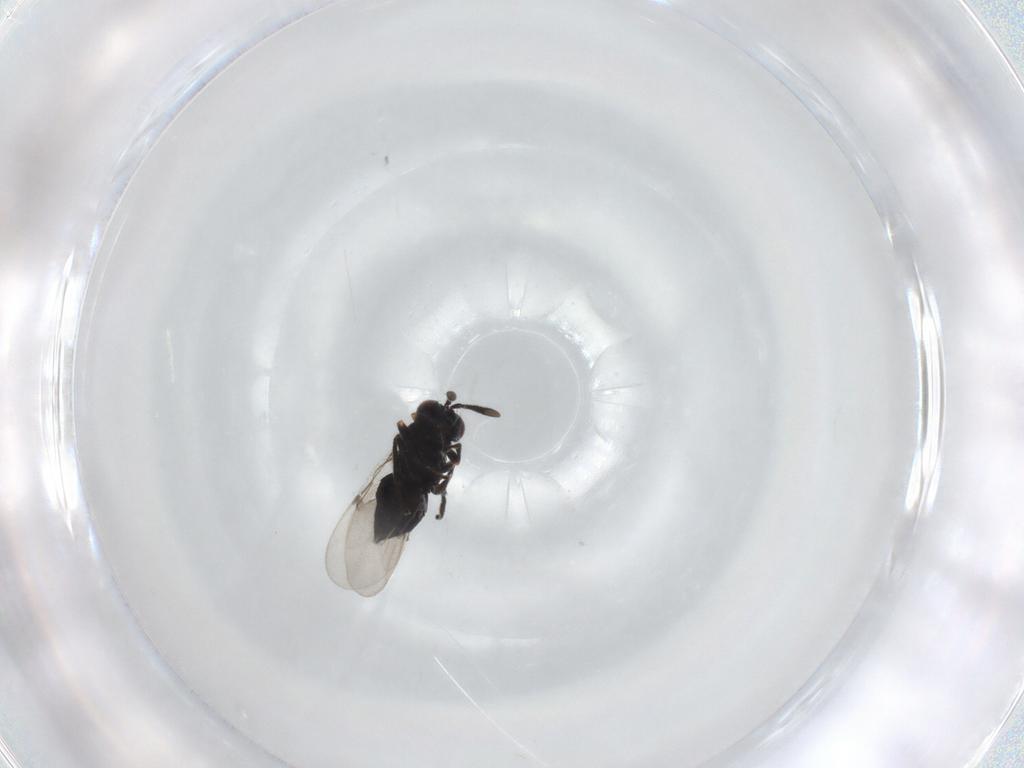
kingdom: Animalia
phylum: Arthropoda
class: Insecta
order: Hymenoptera
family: Encyrtidae
